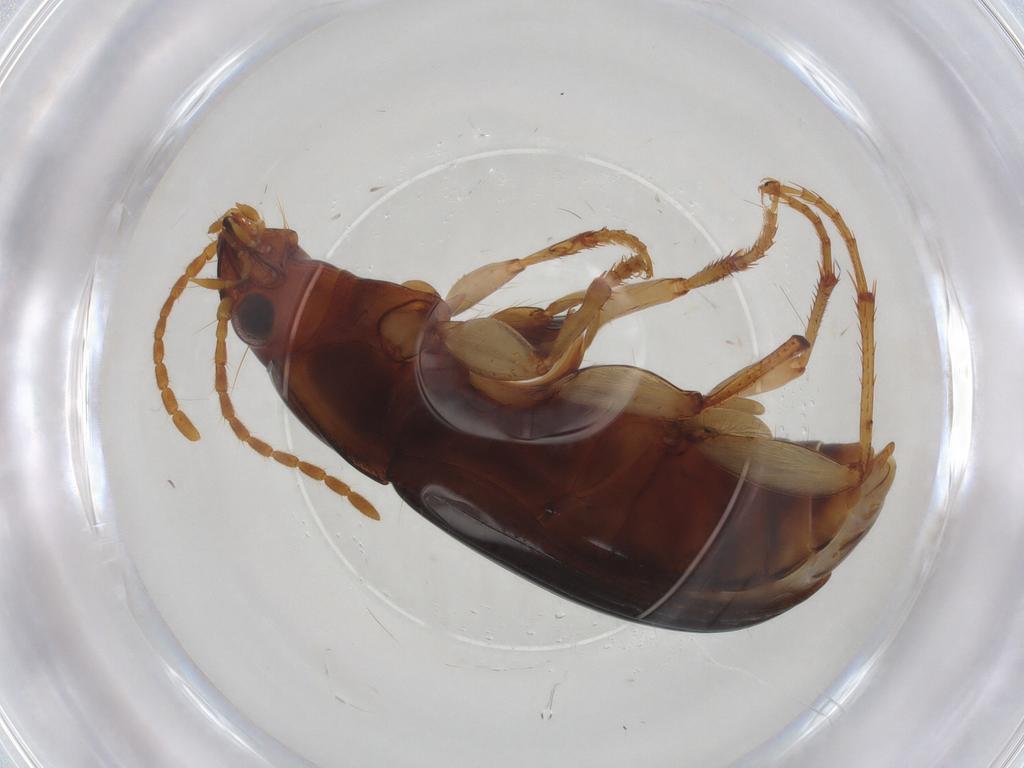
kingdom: Animalia
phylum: Arthropoda
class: Insecta
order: Coleoptera
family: Carabidae
